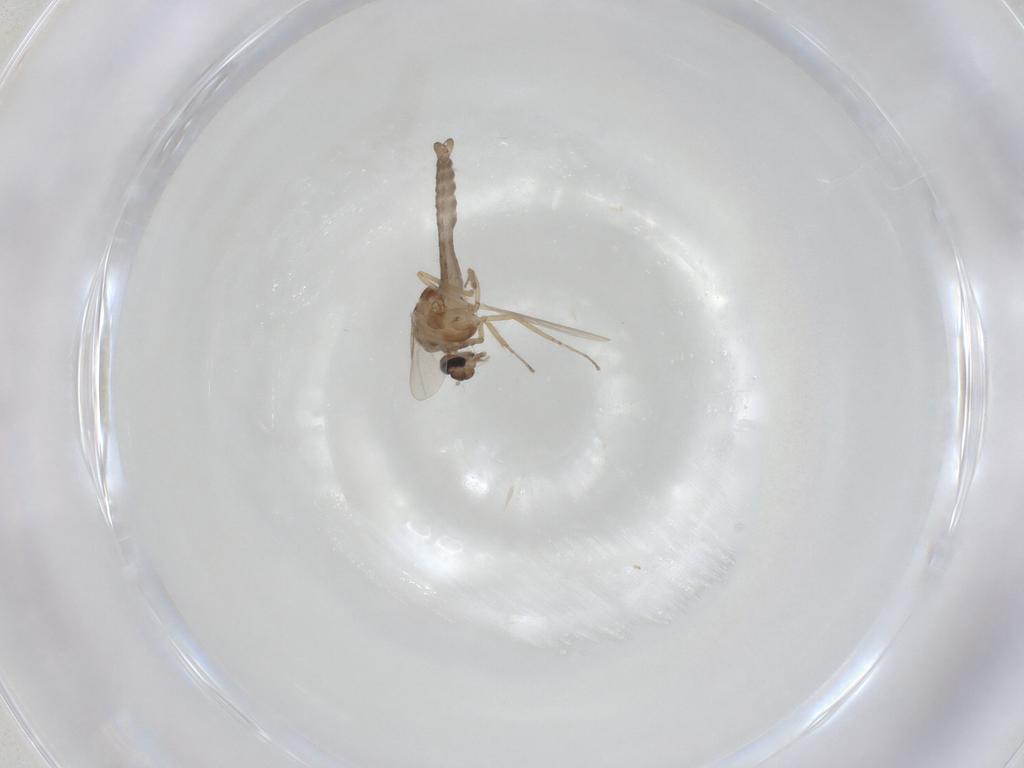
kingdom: Animalia
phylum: Arthropoda
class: Insecta
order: Diptera
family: Ceratopogonidae
